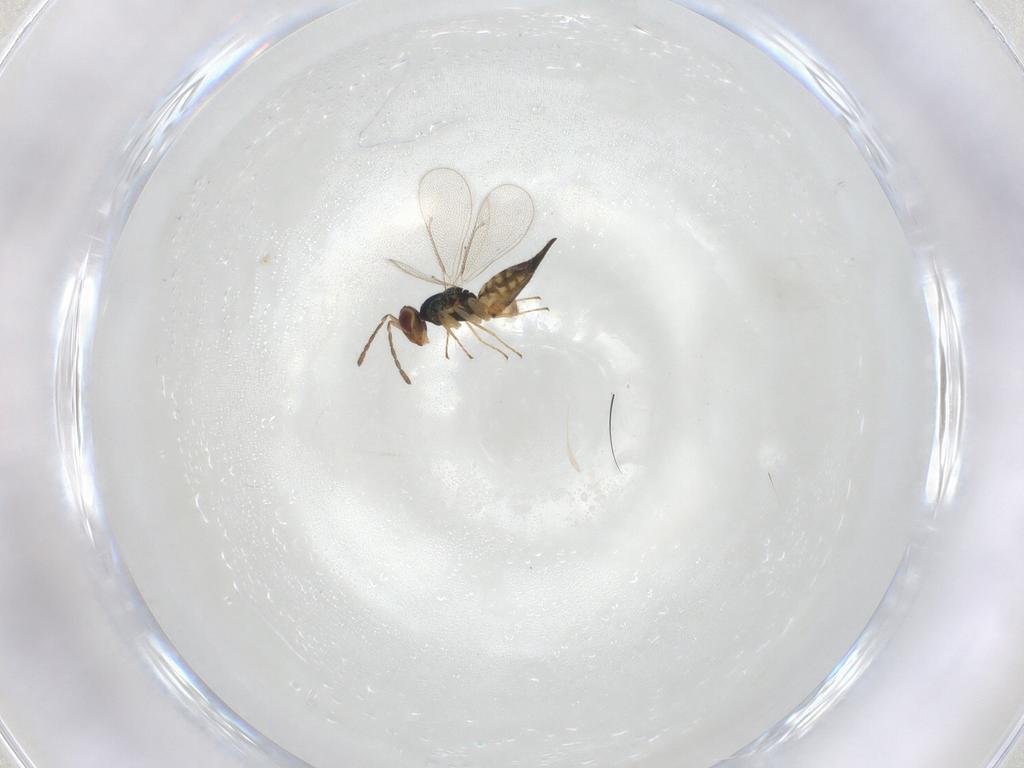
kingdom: Animalia
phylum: Arthropoda
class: Insecta
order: Hymenoptera
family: Eulophidae
